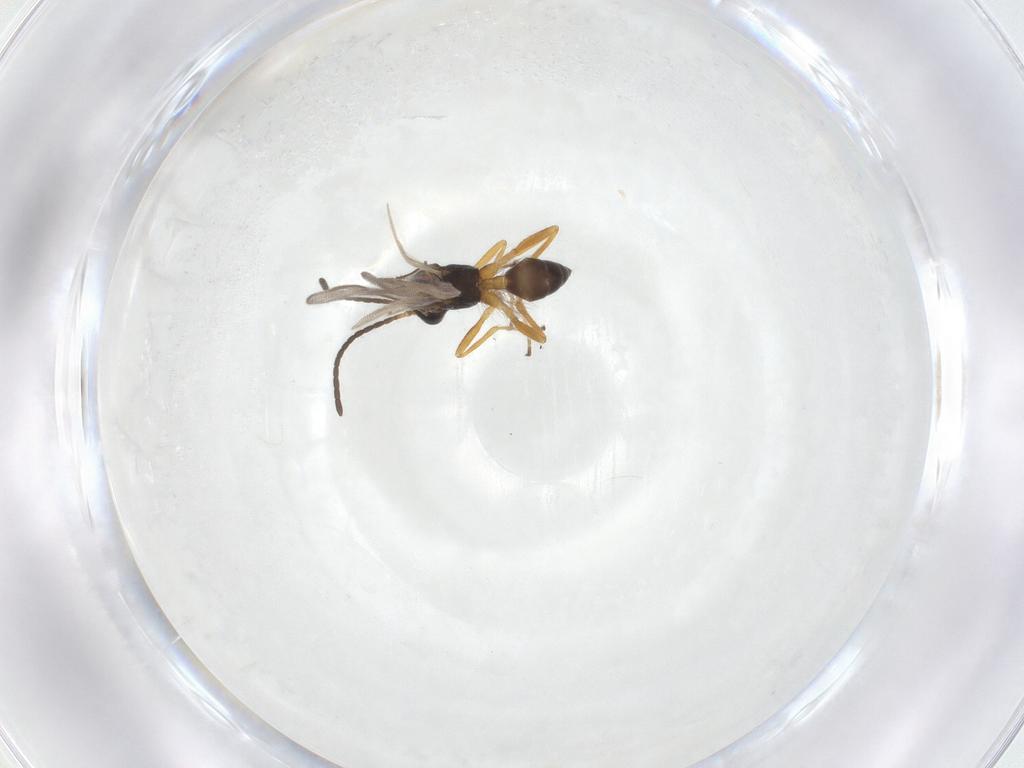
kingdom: Animalia
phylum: Arthropoda
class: Insecta
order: Hymenoptera
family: Braconidae
